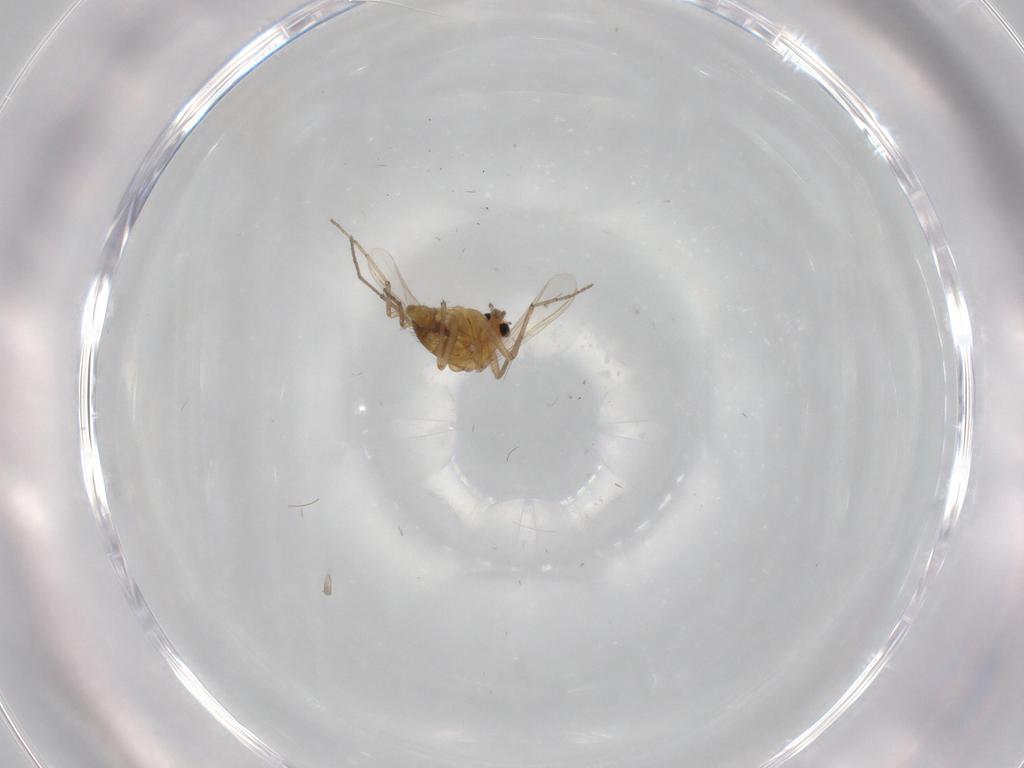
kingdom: Animalia
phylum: Arthropoda
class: Insecta
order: Diptera
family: Chironomidae
